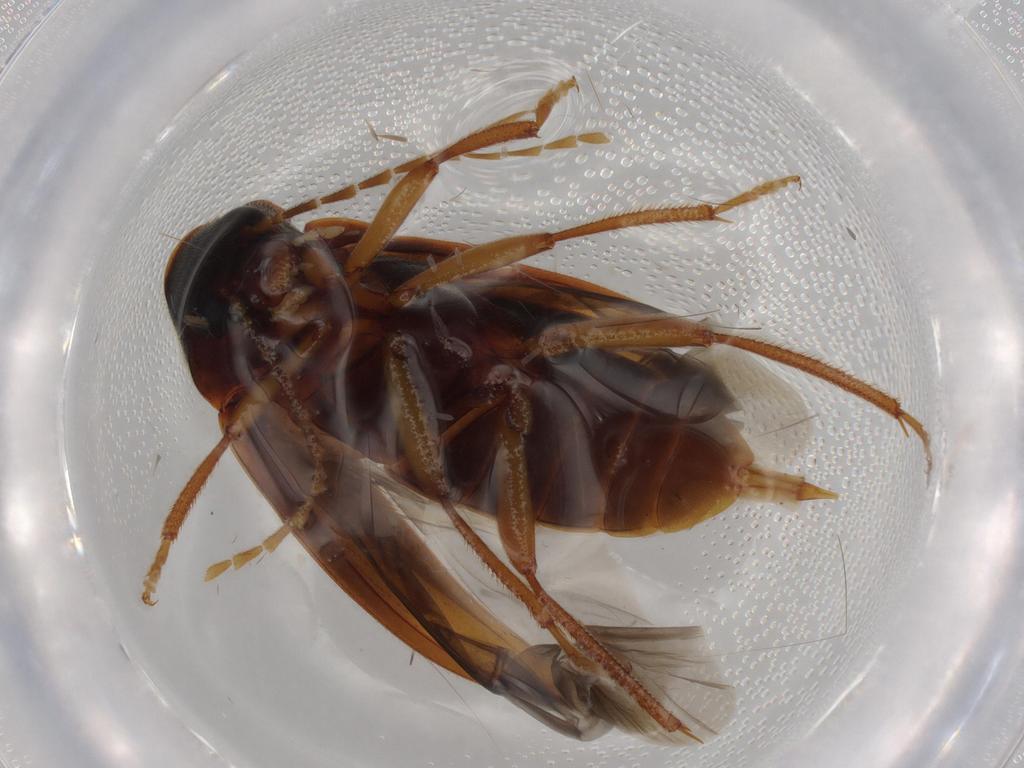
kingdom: Animalia
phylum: Arthropoda
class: Insecta
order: Coleoptera
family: Ptilodactylidae
